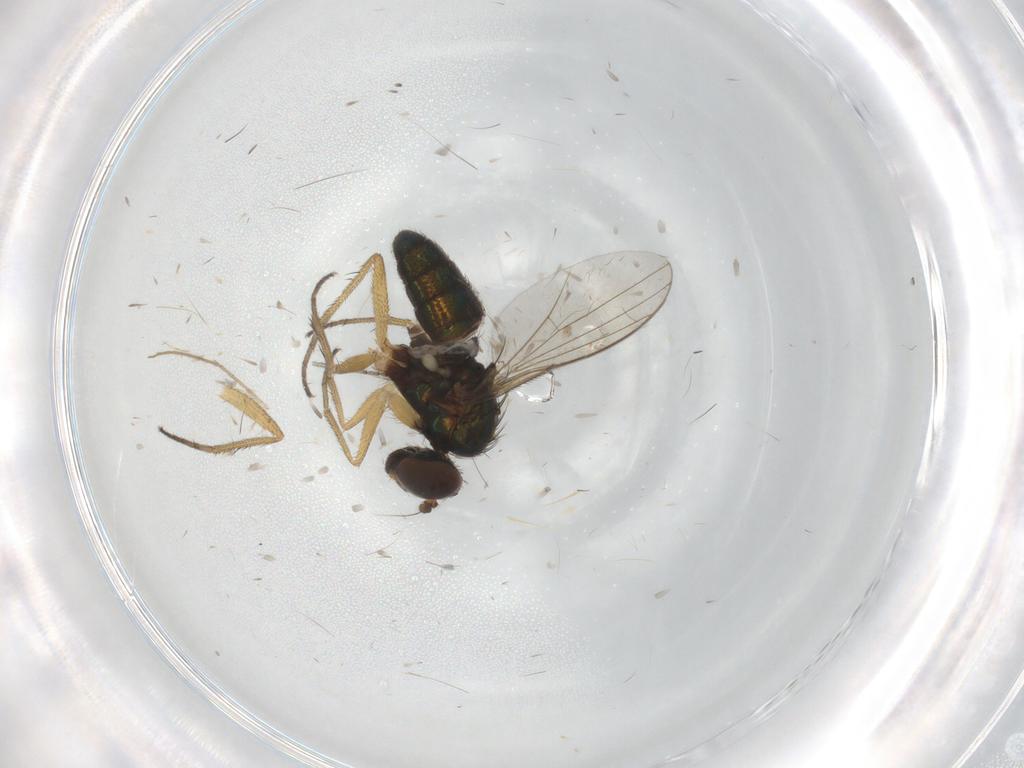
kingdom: Animalia
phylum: Arthropoda
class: Insecta
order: Diptera
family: Dolichopodidae
